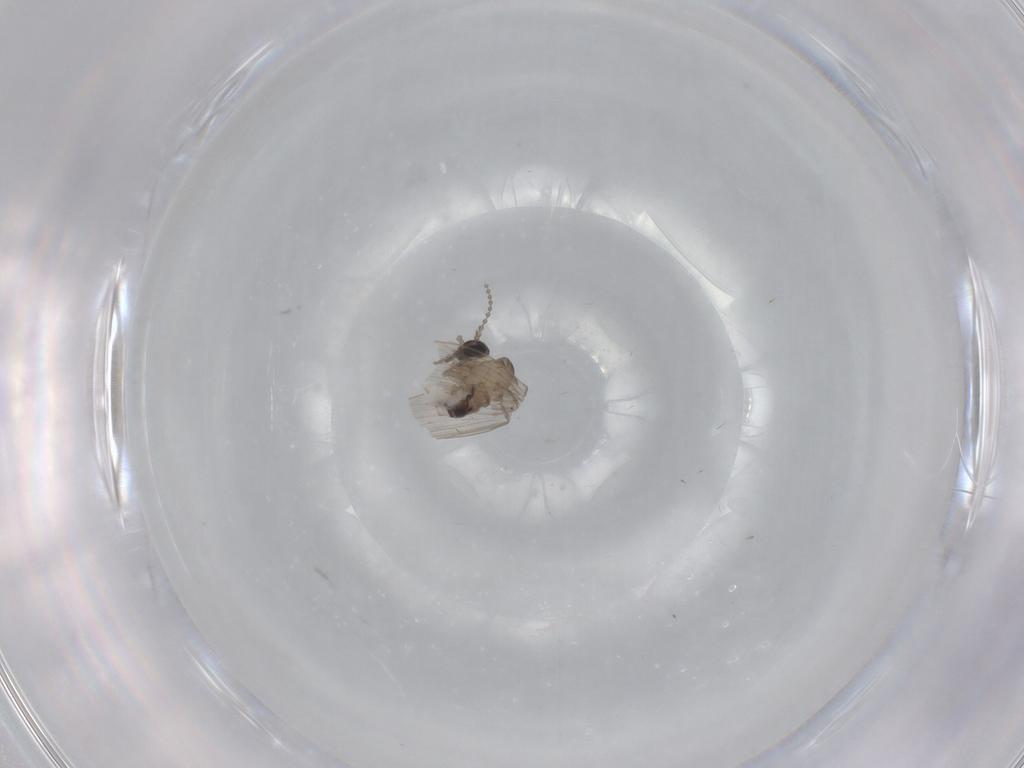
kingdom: Animalia
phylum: Arthropoda
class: Insecta
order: Diptera
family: Psychodidae
